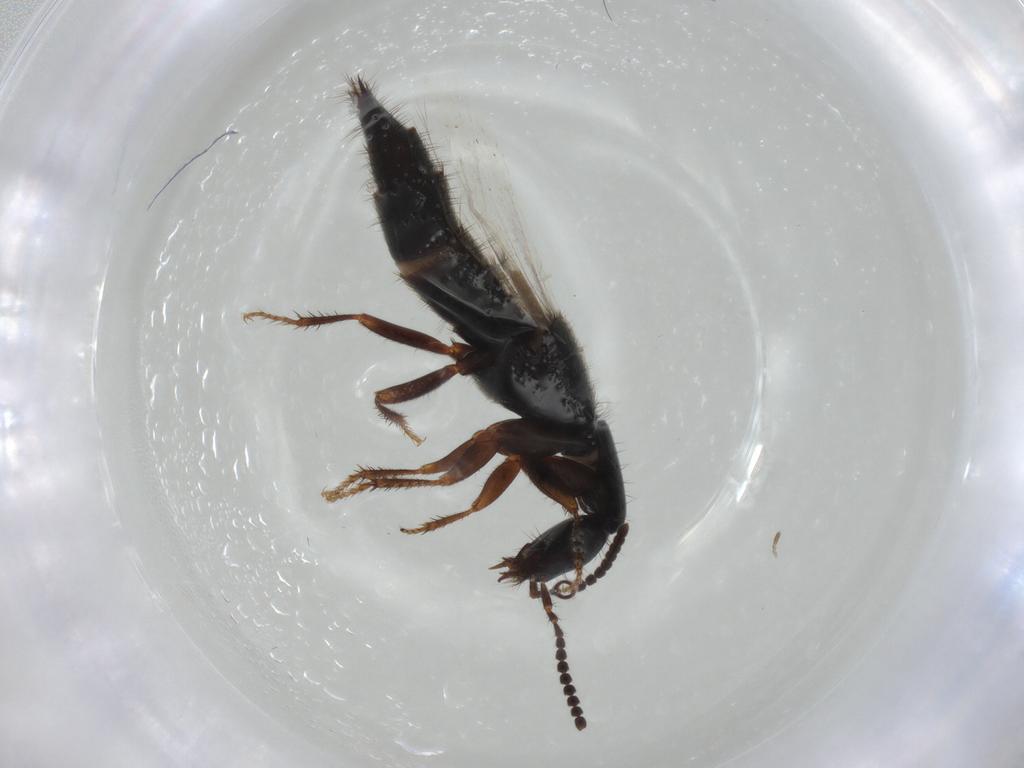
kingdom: Animalia
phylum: Arthropoda
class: Insecta
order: Coleoptera
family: Staphylinidae
